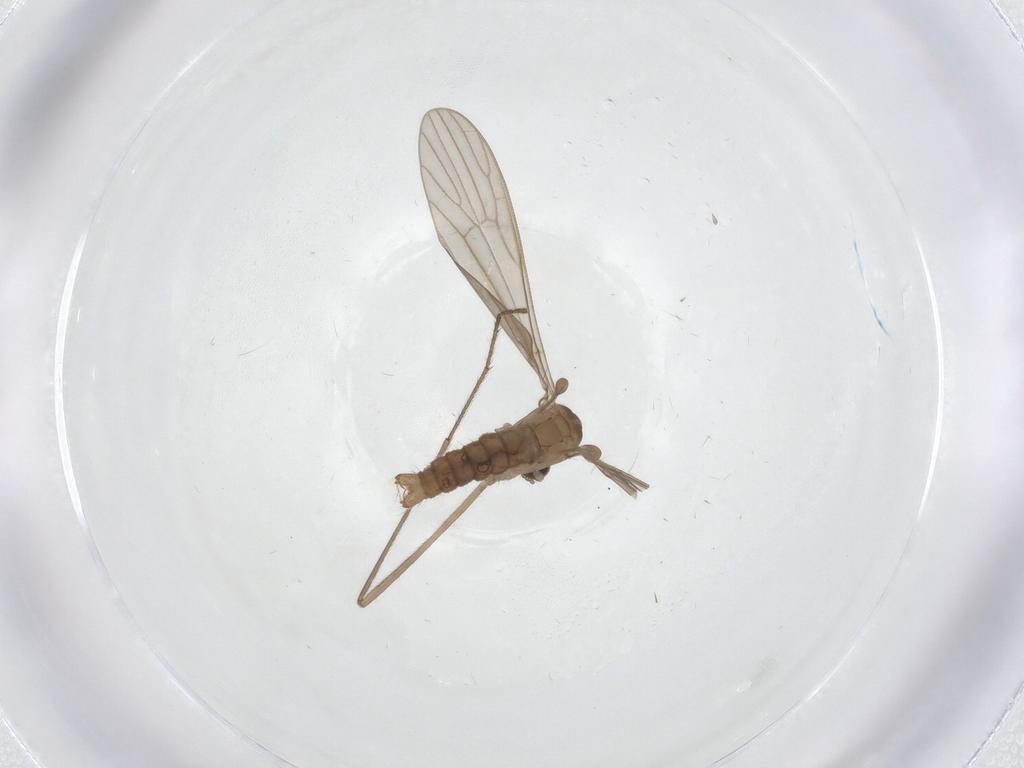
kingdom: Animalia
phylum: Arthropoda
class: Insecta
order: Diptera
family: Limoniidae
